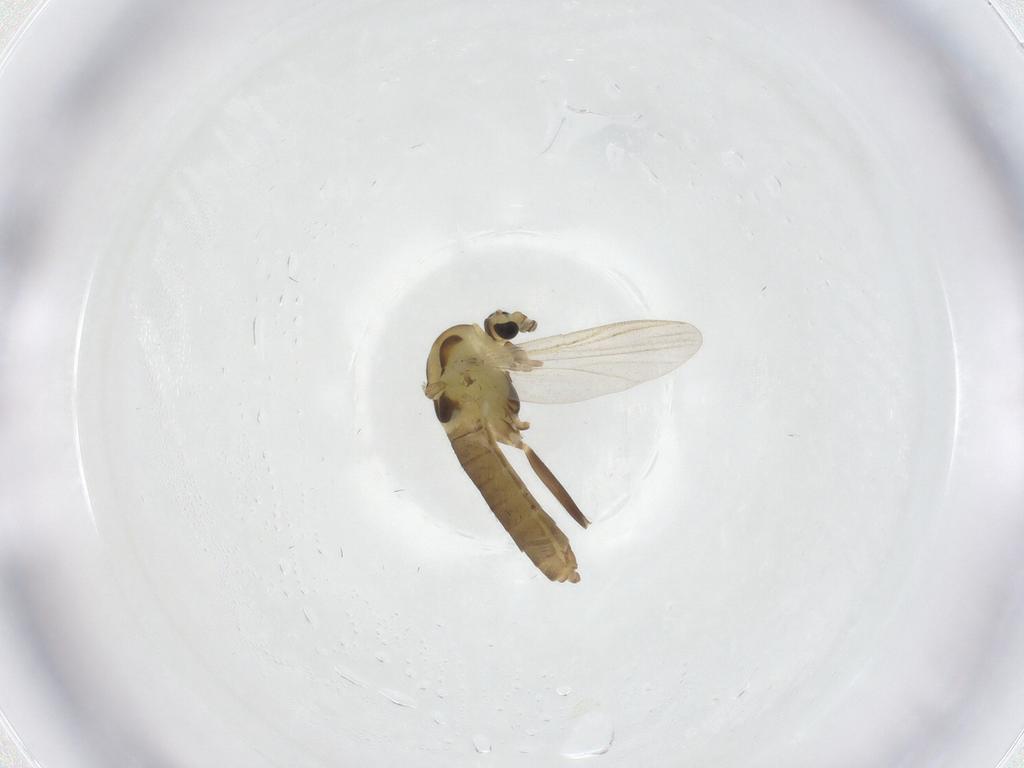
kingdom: Animalia
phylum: Arthropoda
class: Insecta
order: Diptera
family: Chironomidae
